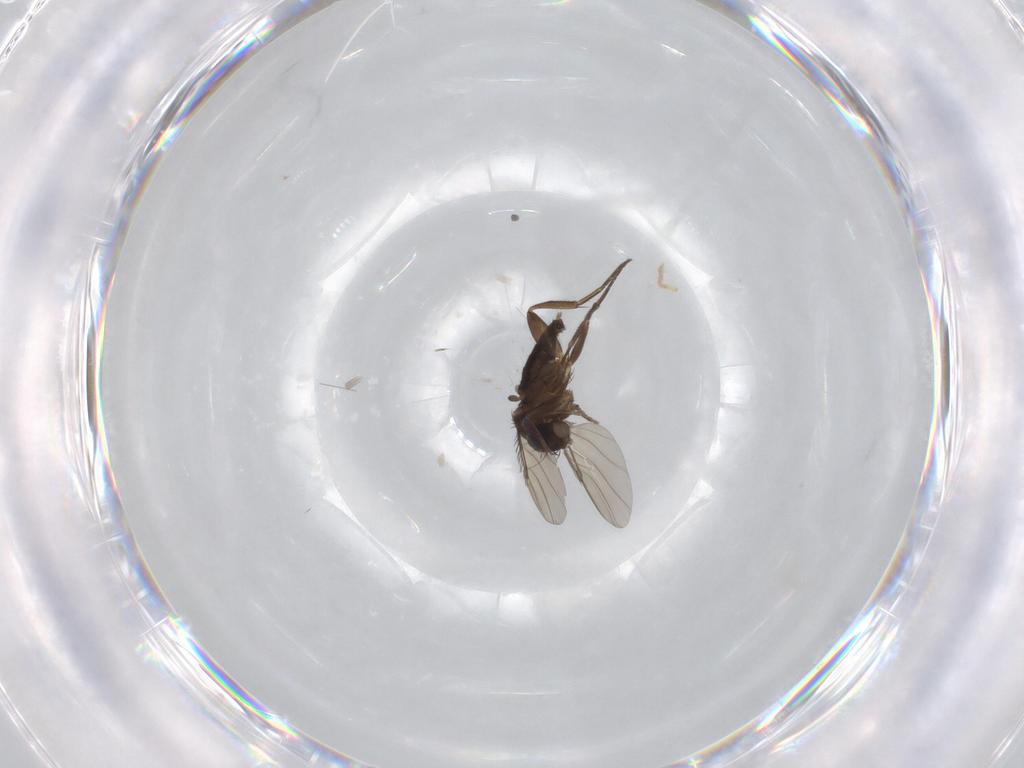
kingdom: Animalia
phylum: Arthropoda
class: Insecta
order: Diptera
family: Phoridae
